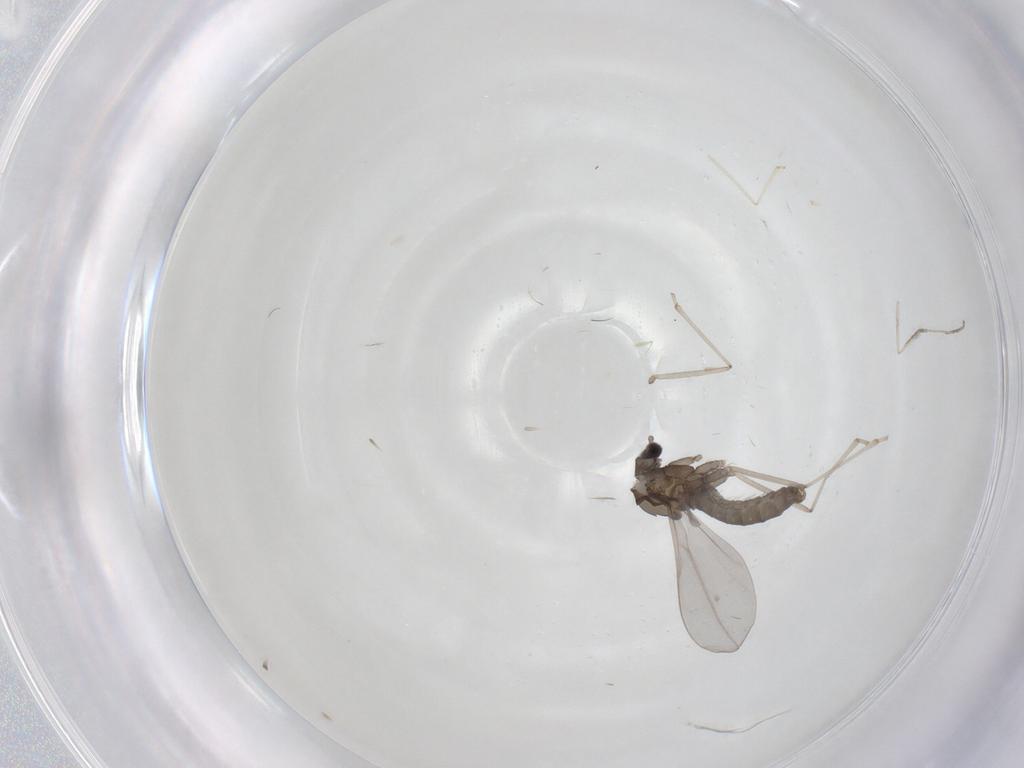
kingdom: Animalia
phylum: Arthropoda
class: Insecta
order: Diptera
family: Cecidomyiidae
